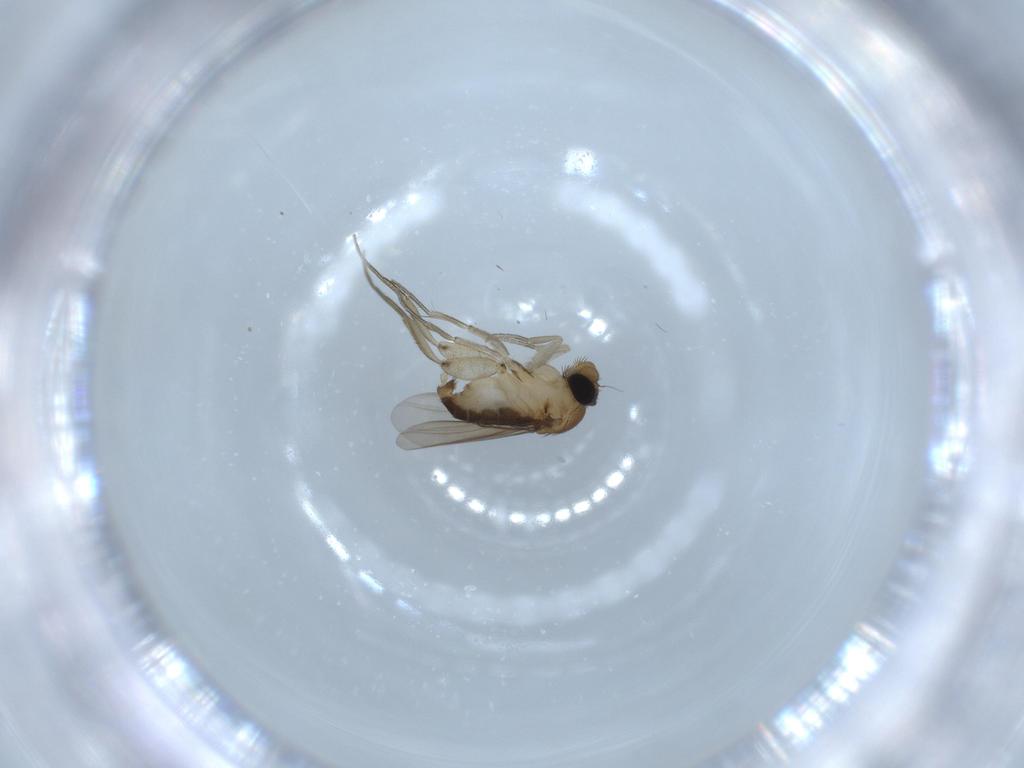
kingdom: Animalia
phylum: Arthropoda
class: Insecta
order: Diptera
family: Phoridae
